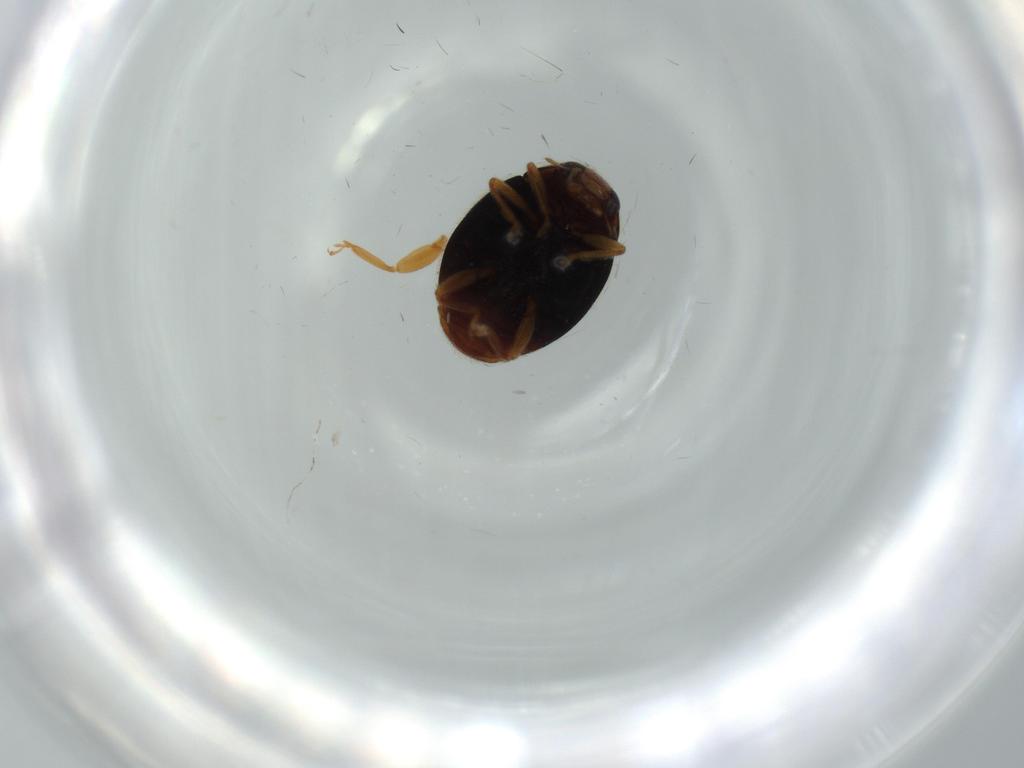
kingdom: Animalia
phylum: Arthropoda
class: Insecta
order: Coleoptera
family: Coccinellidae
